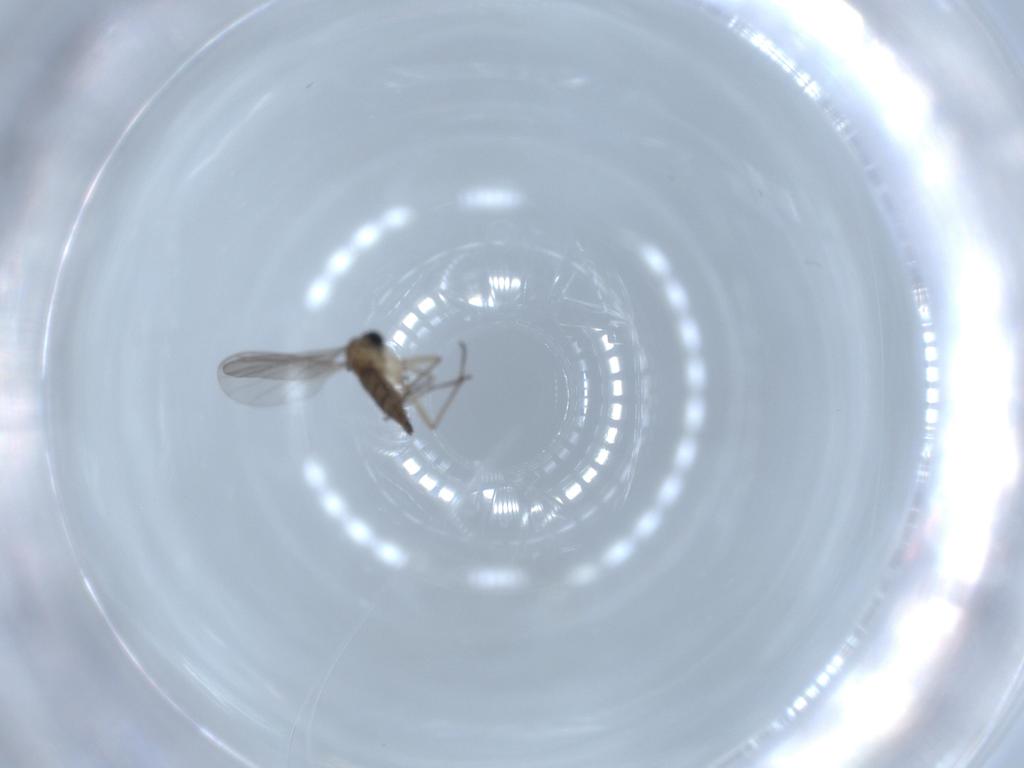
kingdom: Animalia
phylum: Arthropoda
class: Insecta
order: Diptera
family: Sciaridae
